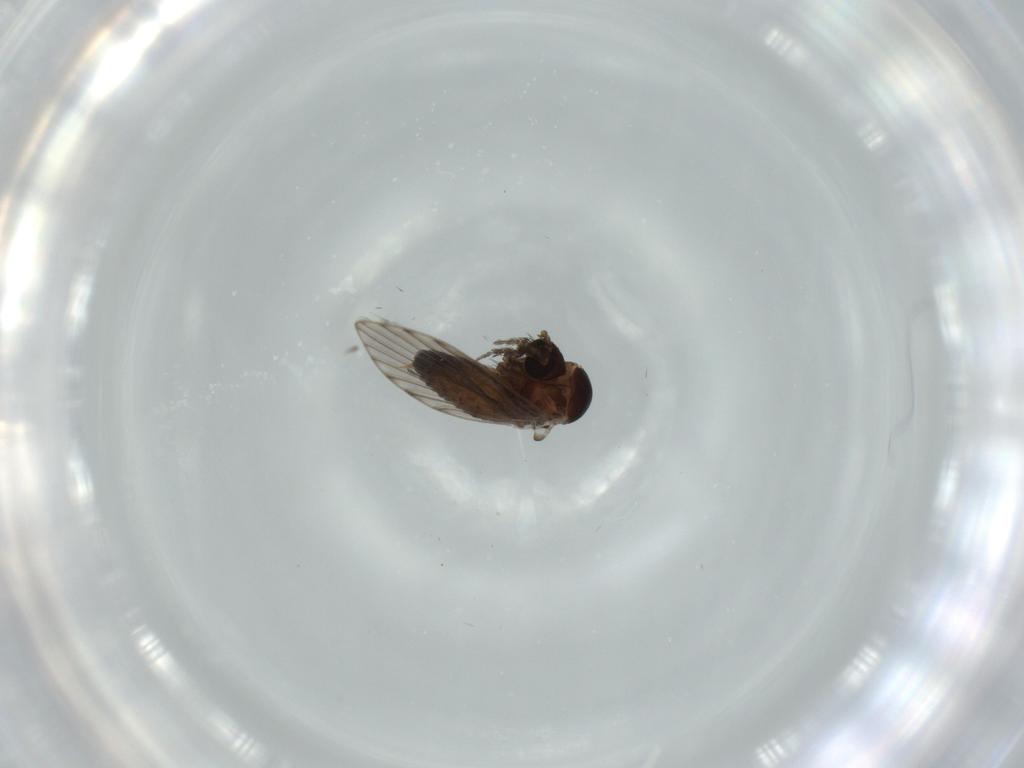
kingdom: Animalia
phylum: Arthropoda
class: Insecta
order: Diptera
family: Psychodidae
